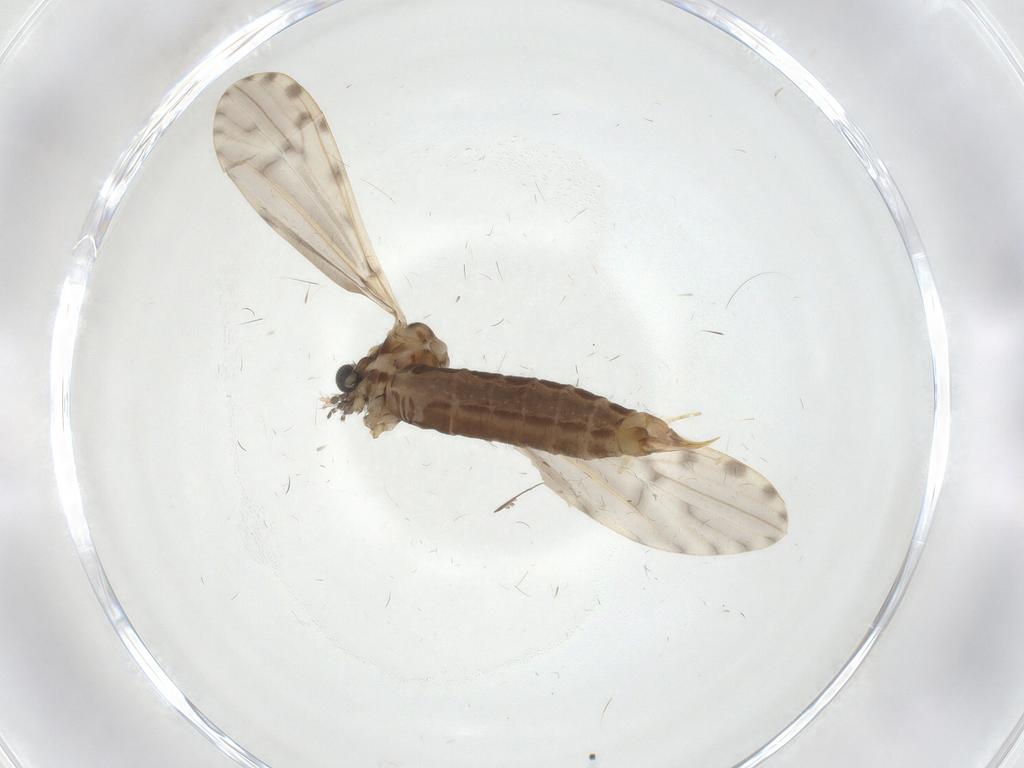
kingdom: Animalia
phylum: Arthropoda
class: Insecta
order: Diptera
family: Limoniidae
